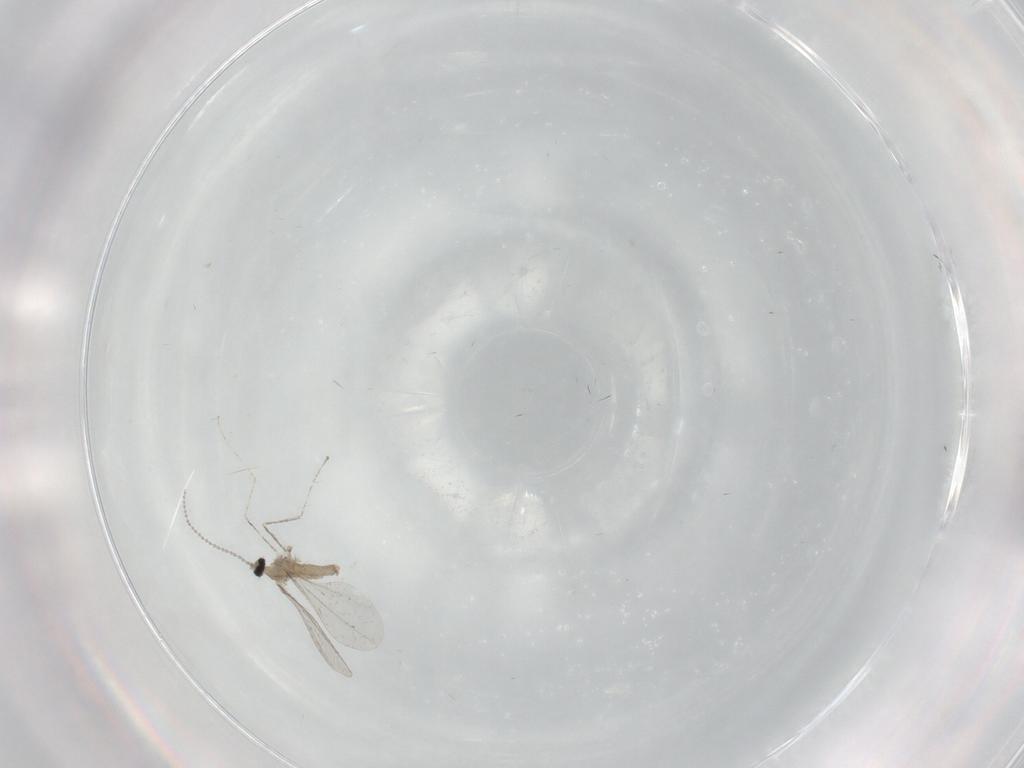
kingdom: Animalia
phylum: Arthropoda
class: Insecta
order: Diptera
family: Cecidomyiidae
